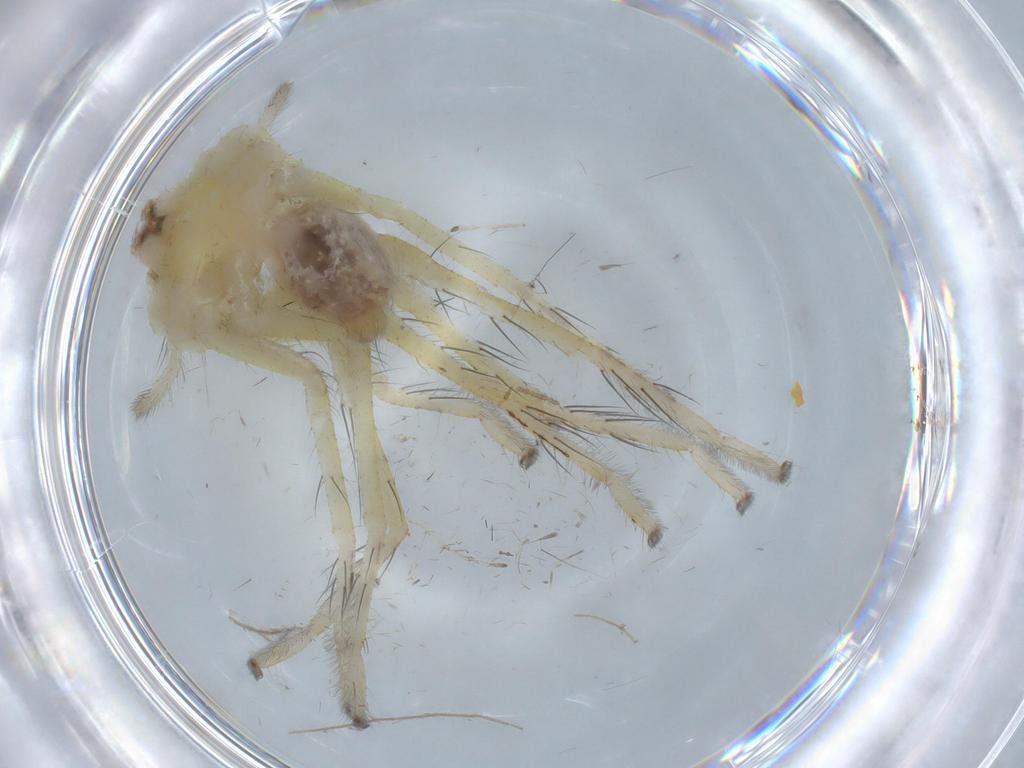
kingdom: Animalia
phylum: Arthropoda
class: Arachnida
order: Araneae
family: Sparassidae
